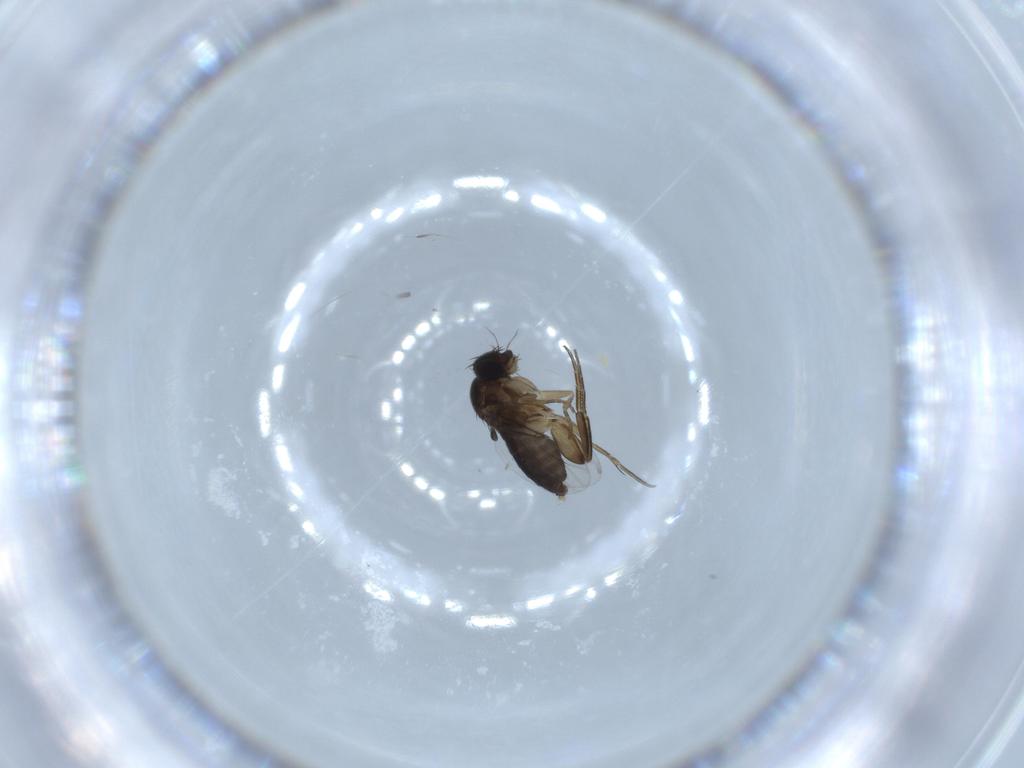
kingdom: Animalia
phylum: Arthropoda
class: Insecta
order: Diptera
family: Phoridae
